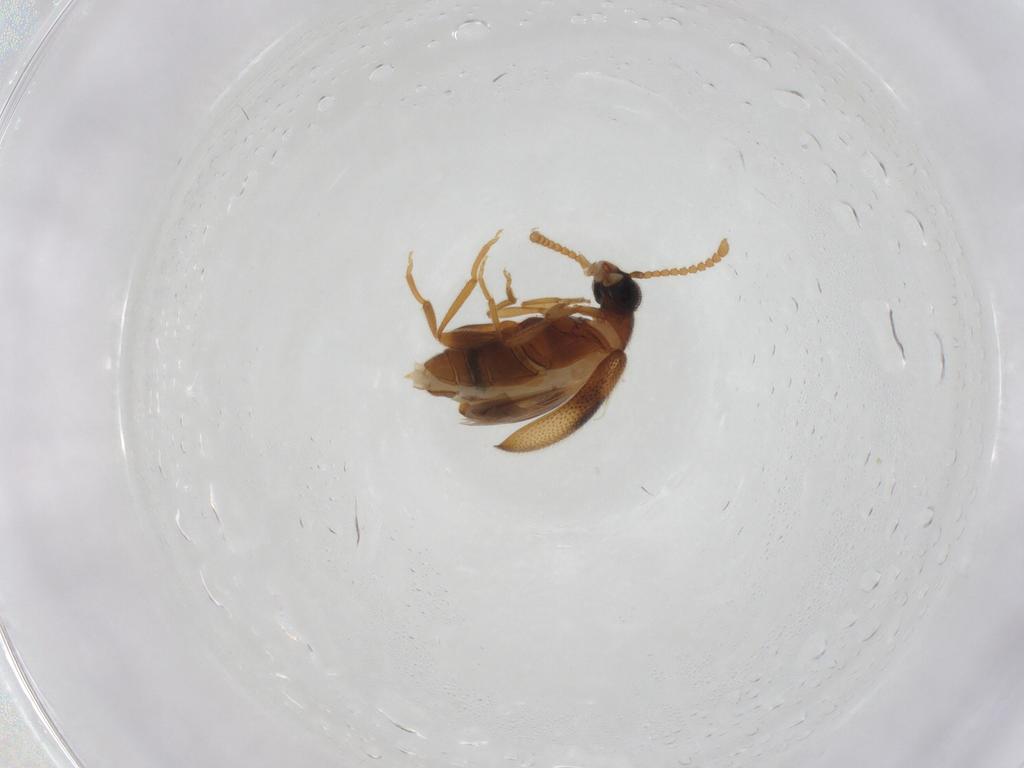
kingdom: Animalia
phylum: Arthropoda
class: Insecta
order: Coleoptera
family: Aderidae
